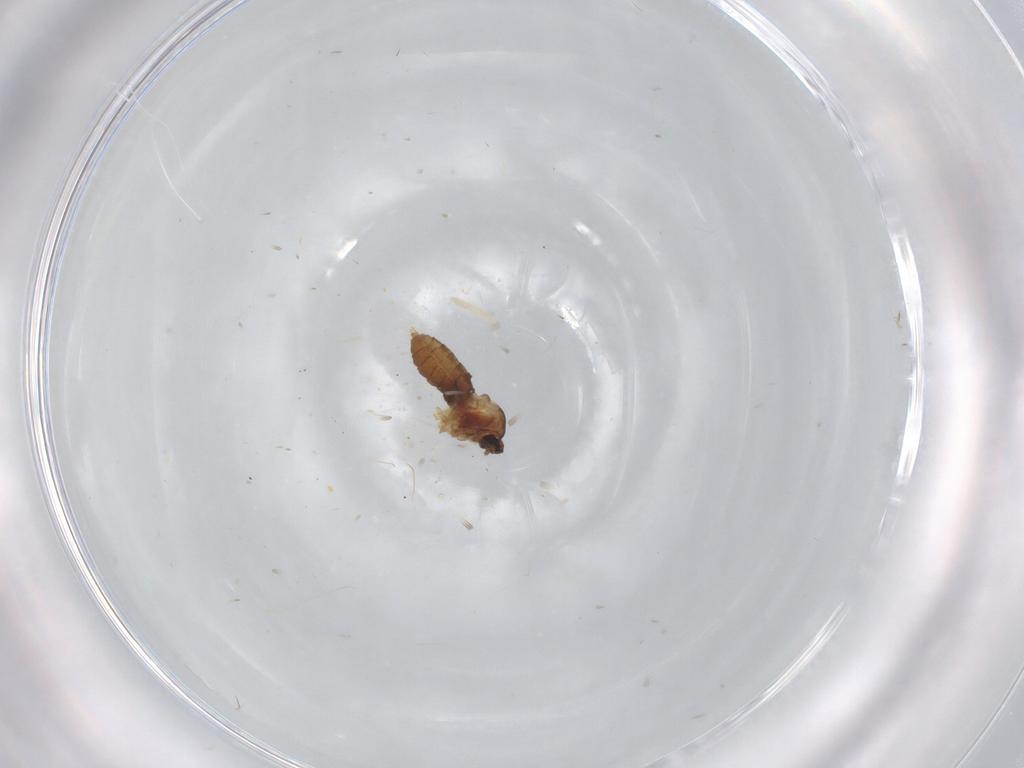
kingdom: Animalia
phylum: Arthropoda
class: Insecta
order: Diptera
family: Cecidomyiidae
